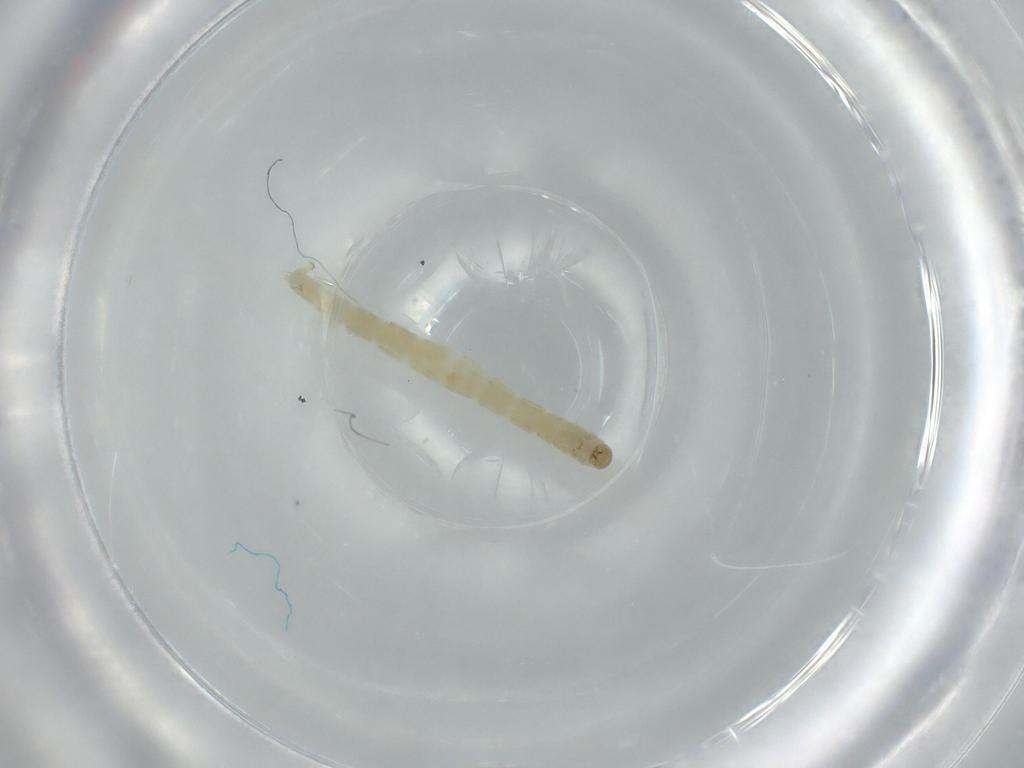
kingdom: Animalia
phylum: Arthropoda
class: Insecta
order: Diptera
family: Chironomidae
